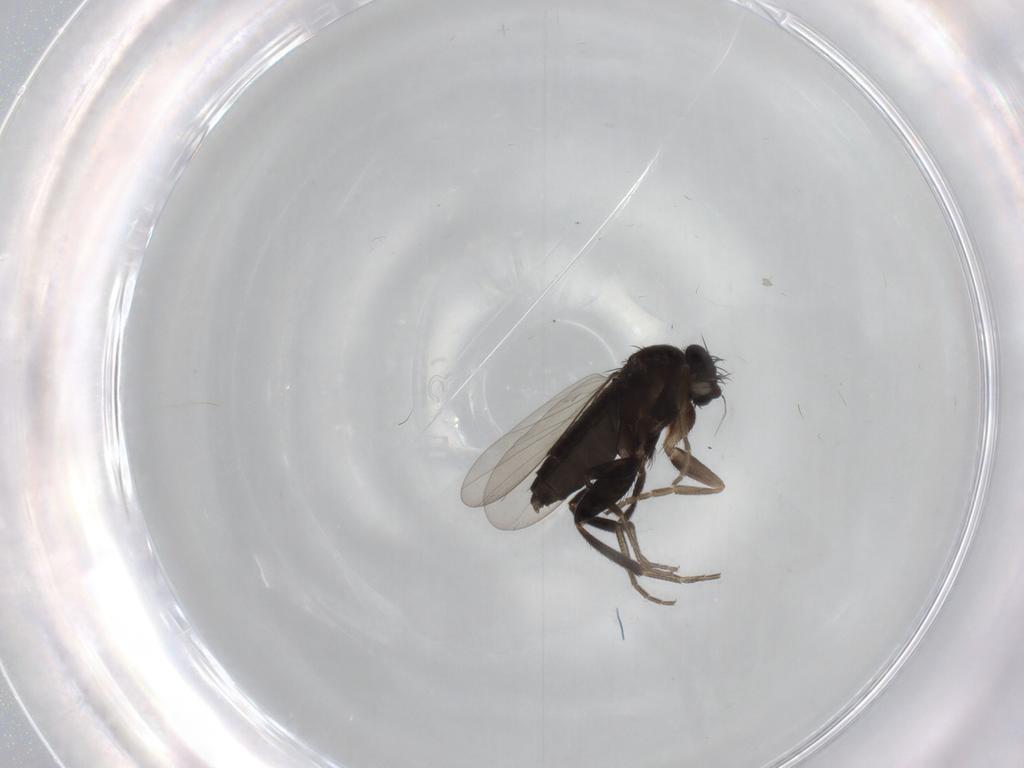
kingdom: Animalia
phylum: Arthropoda
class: Insecta
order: Diptera
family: Phoridae
